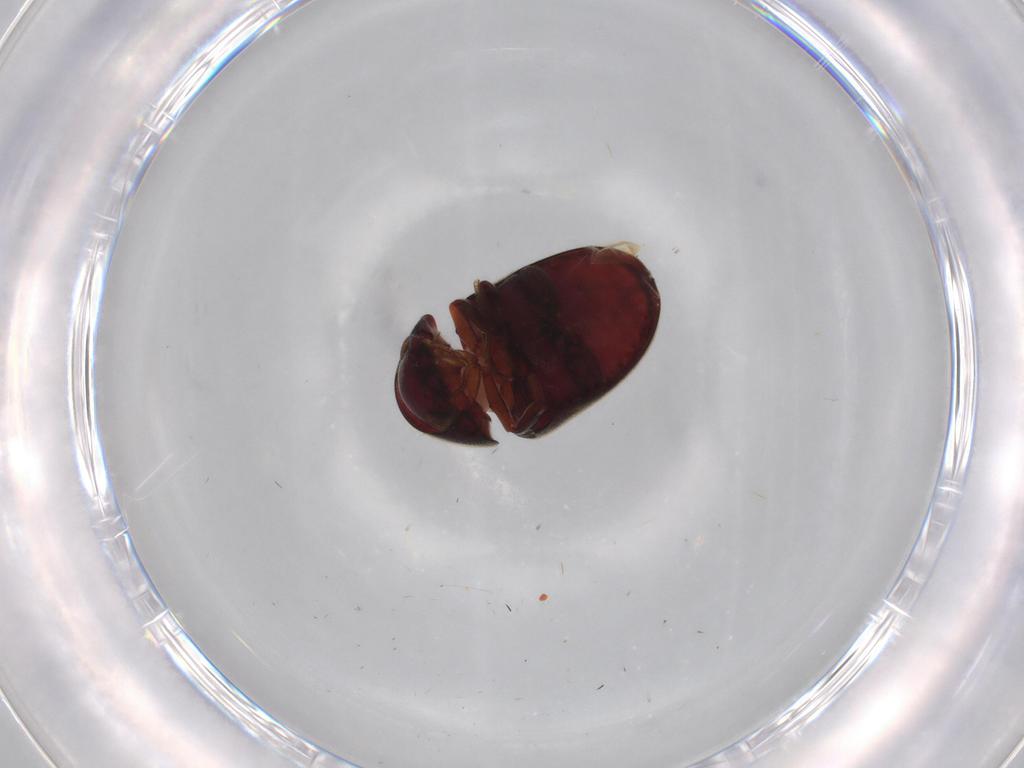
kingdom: Animalia
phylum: Arthropoda
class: Insecta
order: Coleoptera
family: Ptinidae
